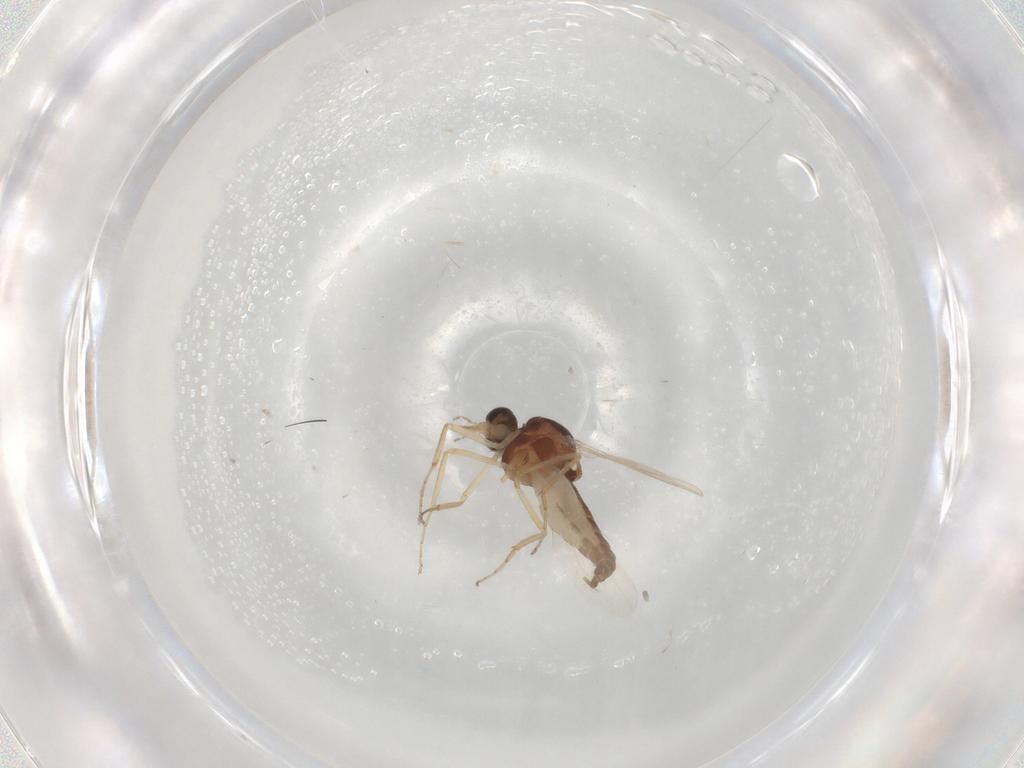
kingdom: Animalia
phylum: Arthropoda
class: Insecta
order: Diptera
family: Ceratopogonidae
